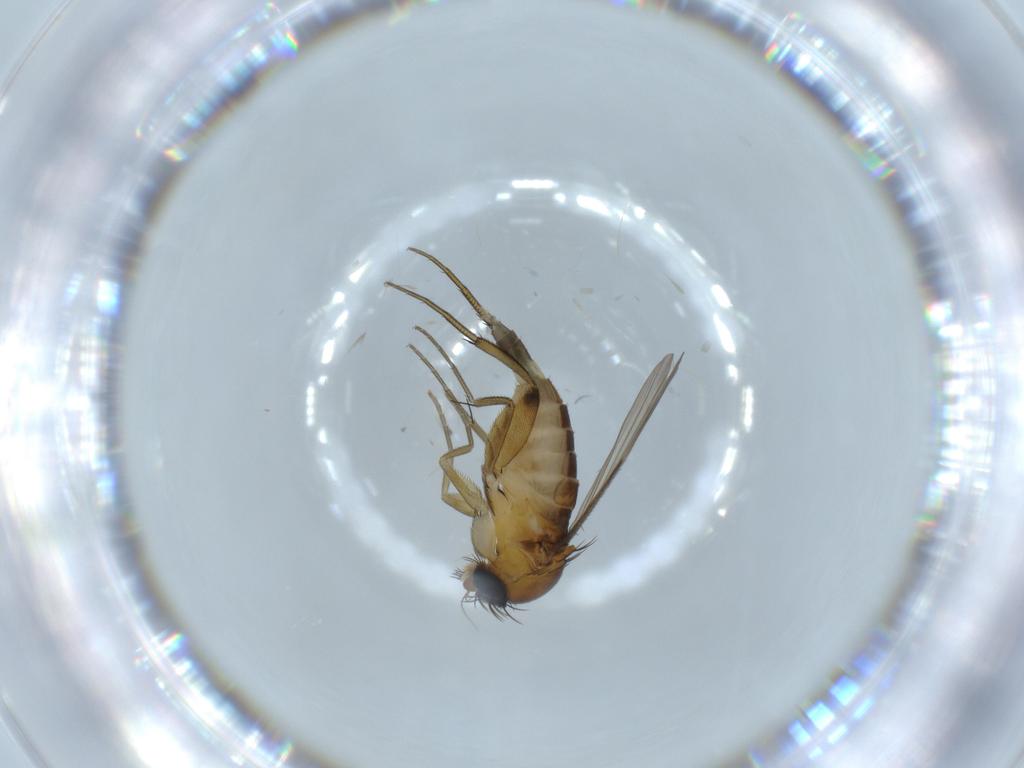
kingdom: Animalia
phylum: Arthropoda
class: Insecta
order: Diptera
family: Phoridae
